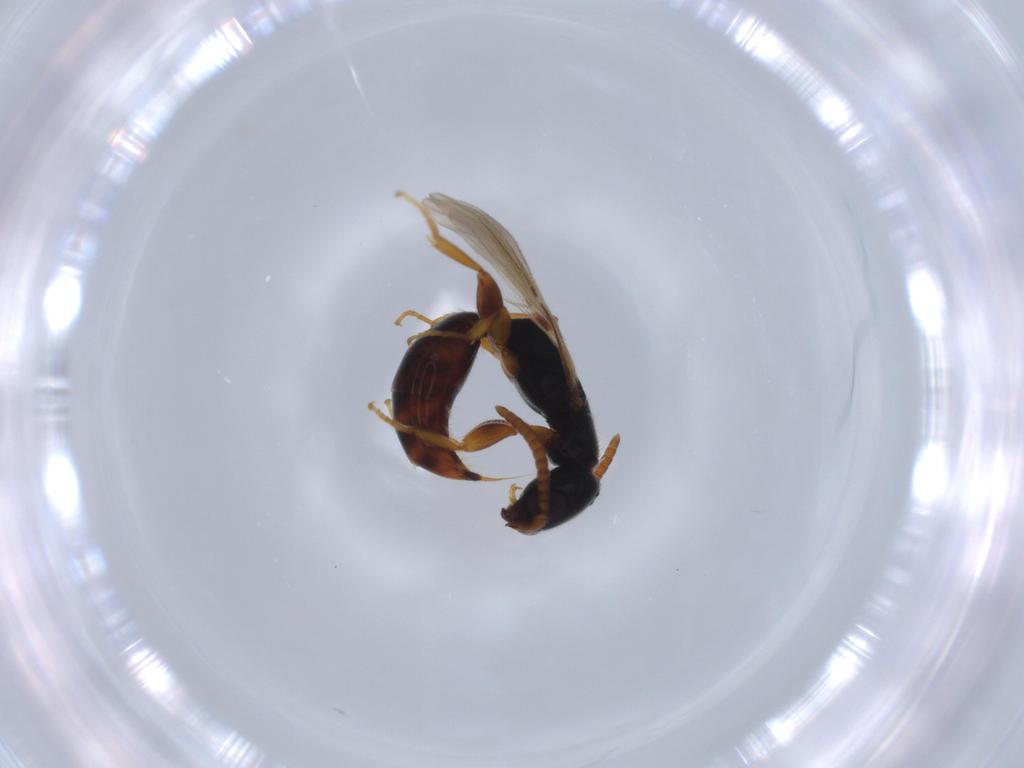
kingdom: Animalia
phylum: Arthropoda
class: Insecta
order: Hymenoptera
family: Bethylidae
